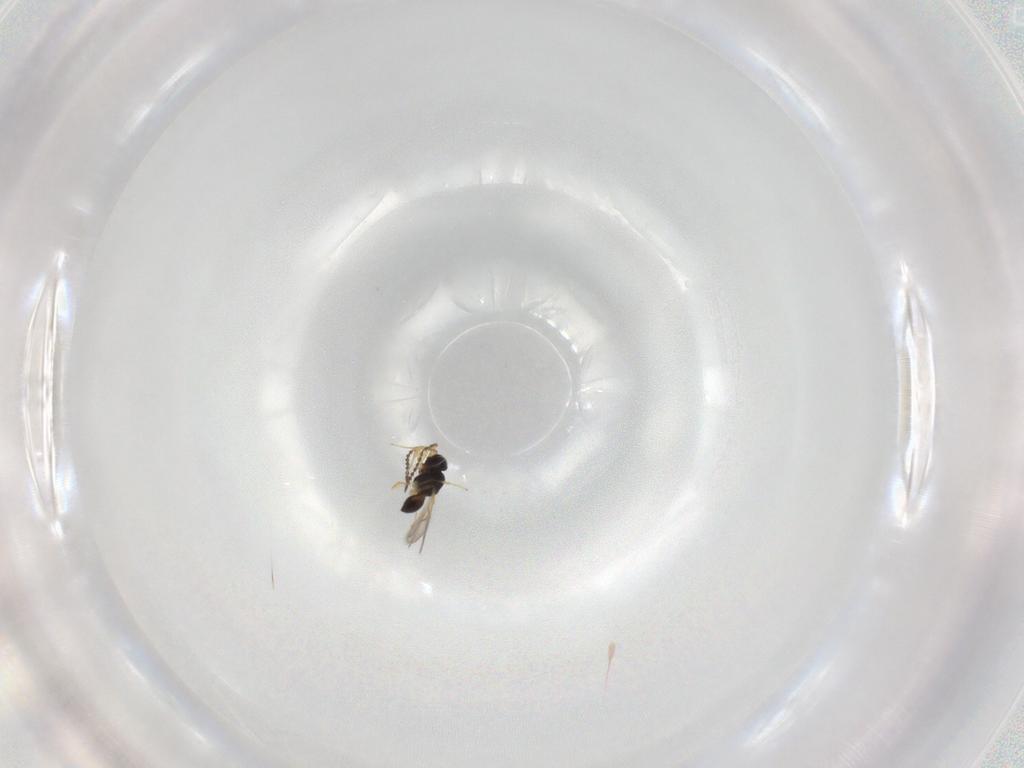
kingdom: Animalia
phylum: Arthropoda
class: Insecta
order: Hymenoptera
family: Scelionidae
